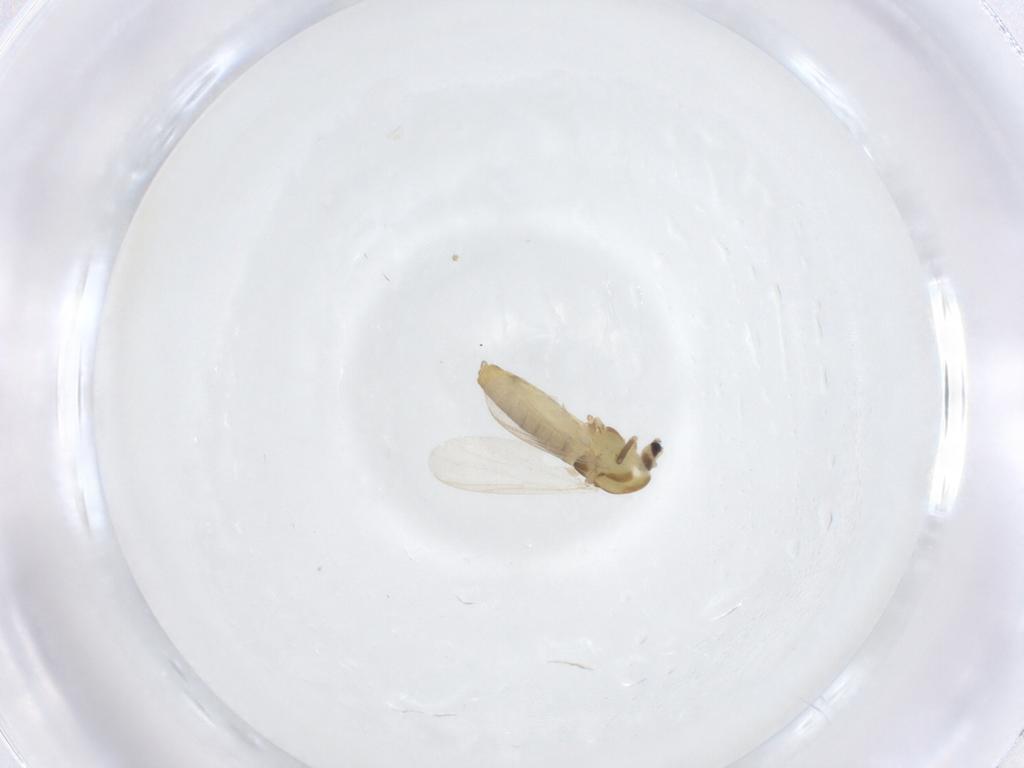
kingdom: Animalia
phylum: Arthropoda
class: Insecta
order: Diptera
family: Chironomidae
